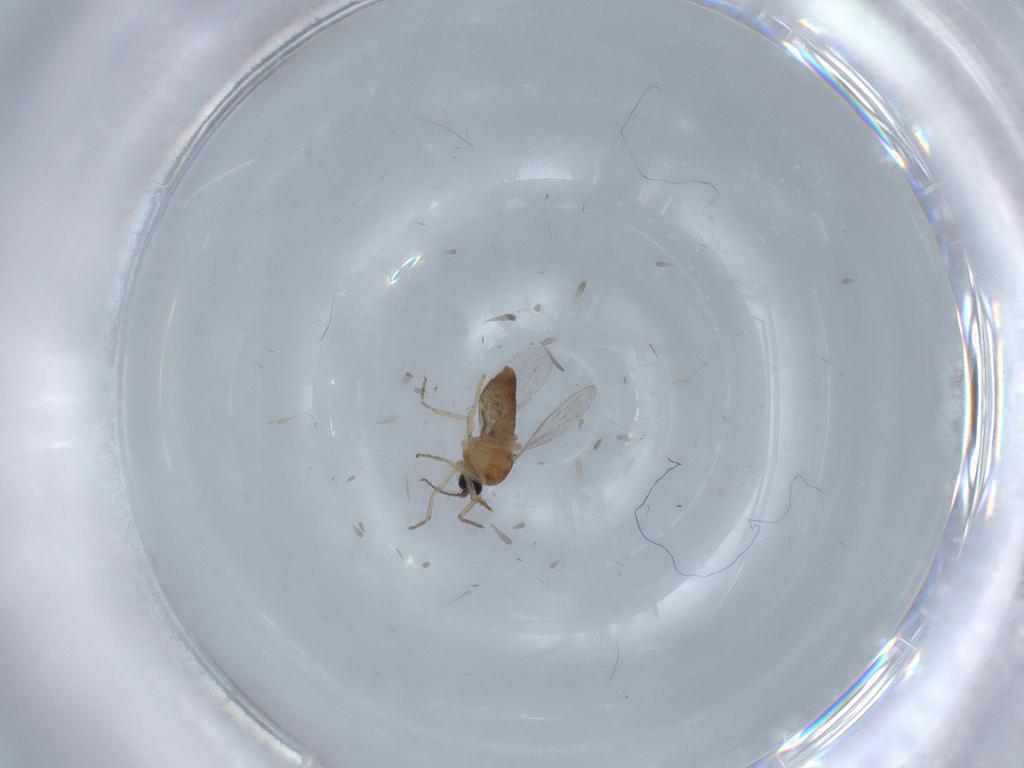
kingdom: Animalia
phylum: Arthropoda
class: Insecta
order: Diptera
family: Ceratopogonidae
